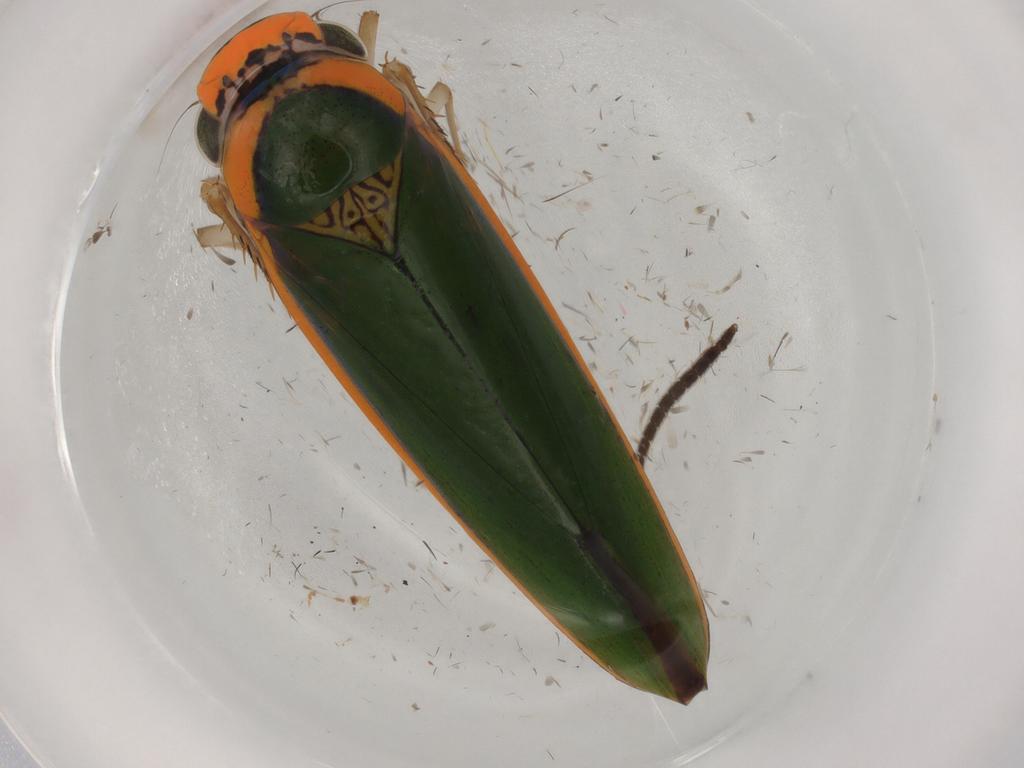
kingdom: Animalia
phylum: Arthropoda
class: Insecta
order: Hemiptera
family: Cicadellidae
